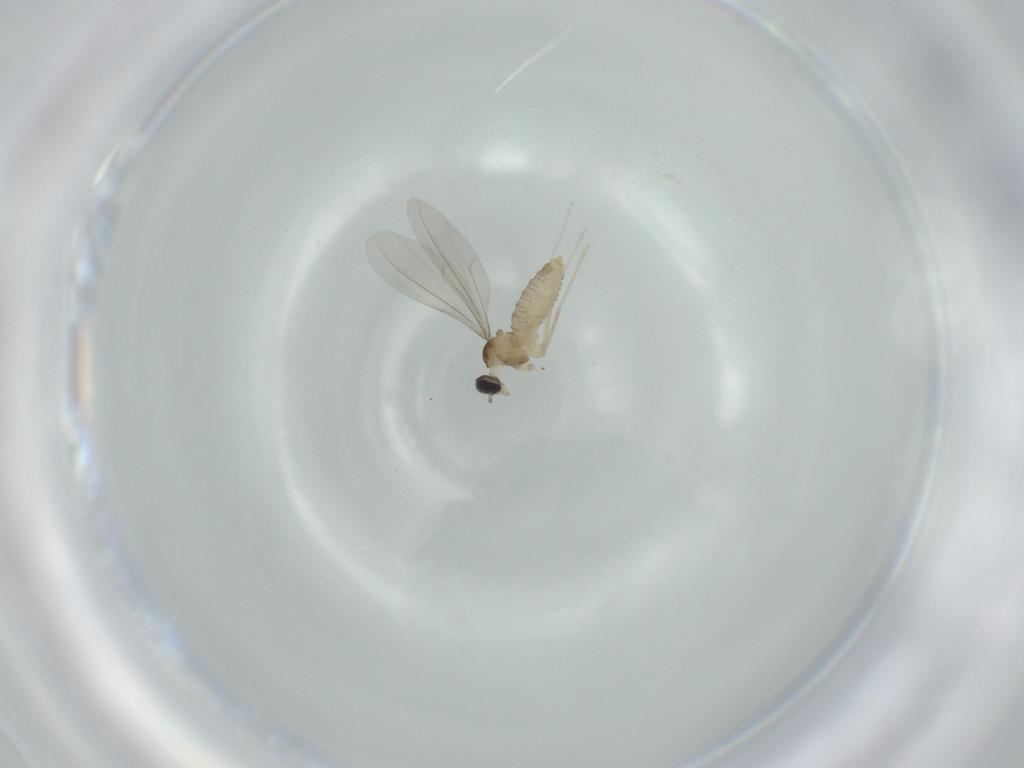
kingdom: Animalia
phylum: Arthropoda
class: Insecta
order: Diptera
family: Cecidomyiidae
